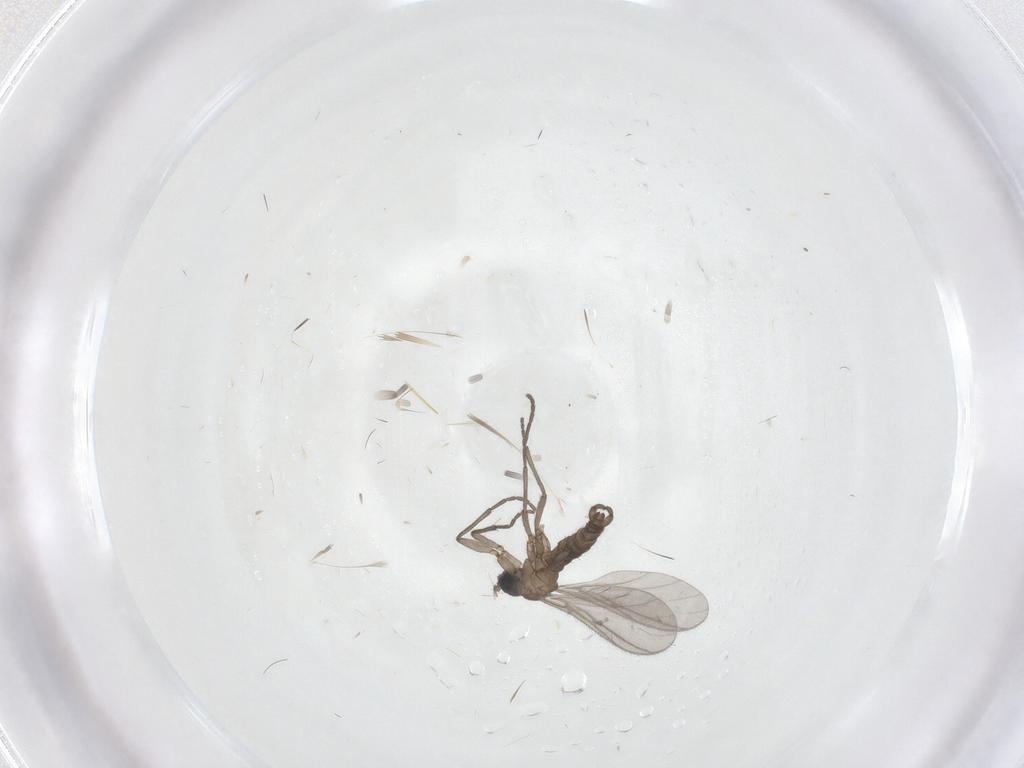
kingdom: Animalia
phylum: Arthropoda
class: Insecta
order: Diptera
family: Sciaridae
